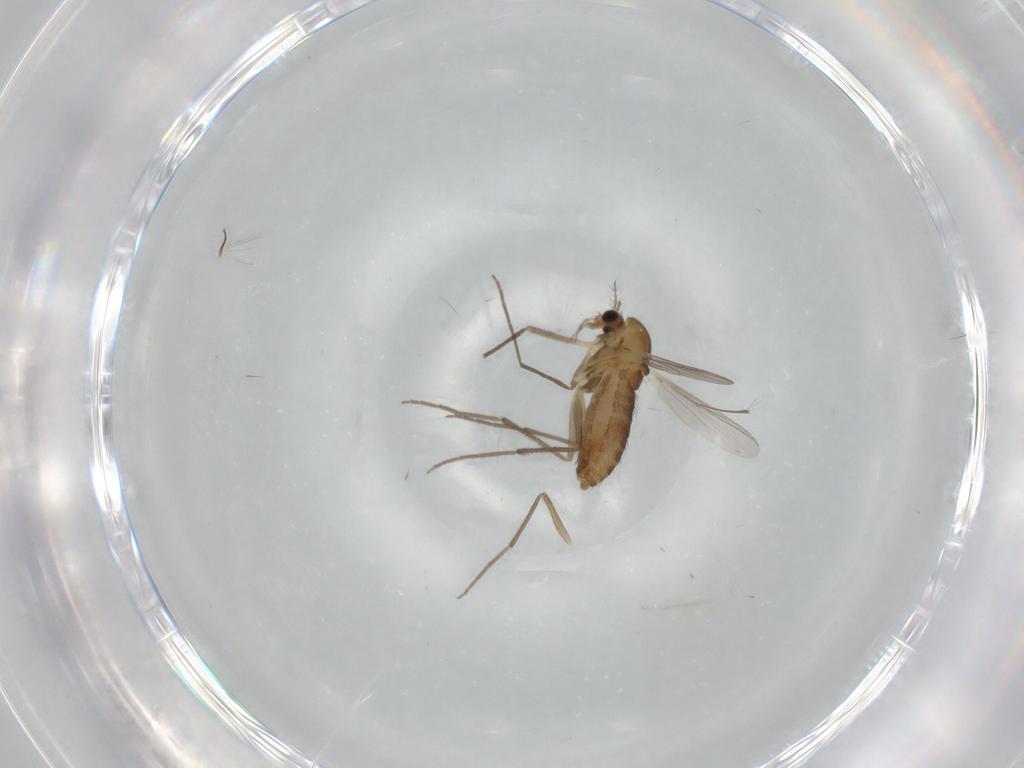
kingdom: Animalia
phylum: Arthropoda
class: Insecta
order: Diptera
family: Chironomidae
